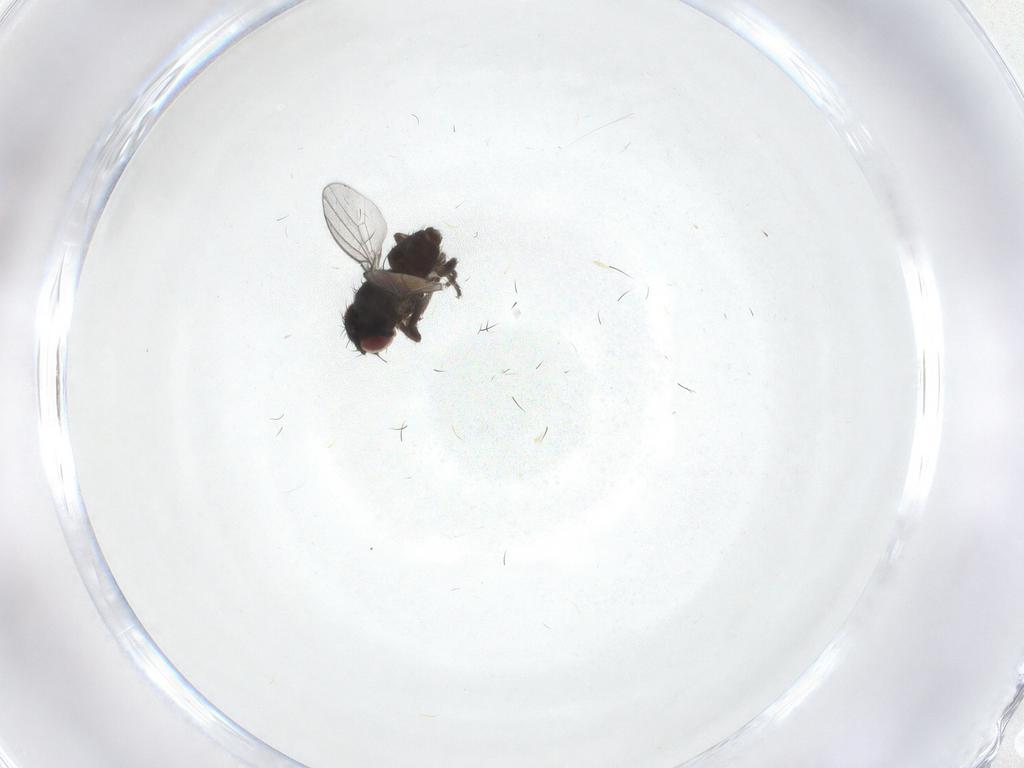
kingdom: Animalia
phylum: Arthropoda
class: Insecta
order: Diptera
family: Milichiidae
